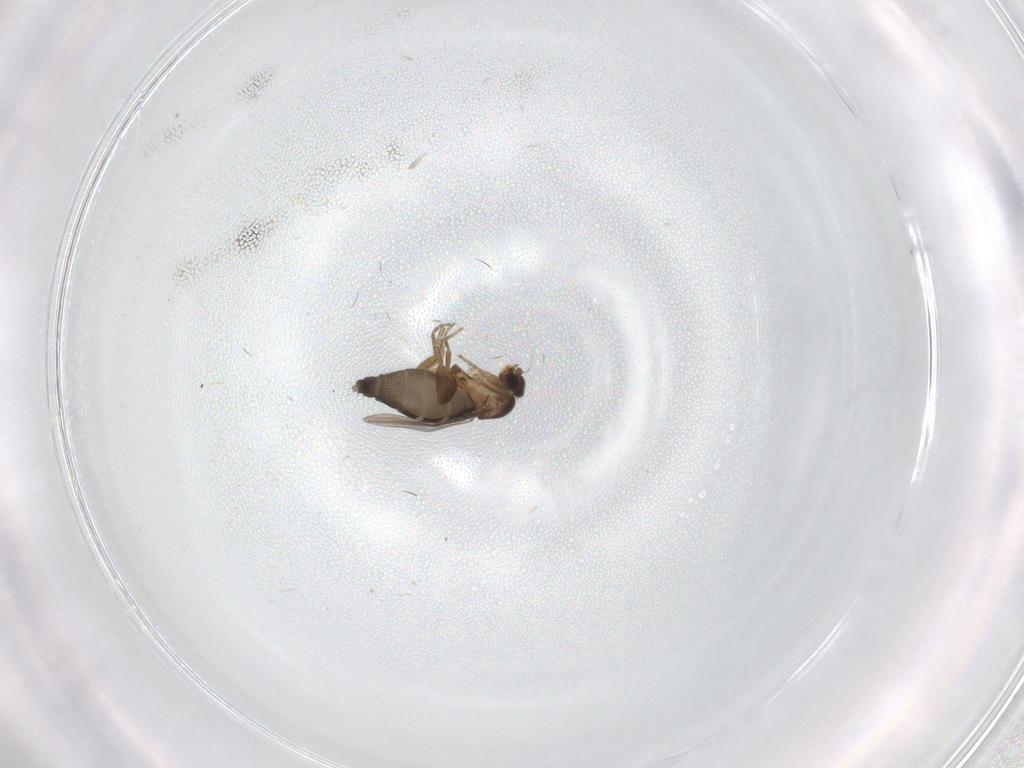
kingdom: Animalia
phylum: Arthropoda
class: Insecta
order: Diptera
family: Phoridae
